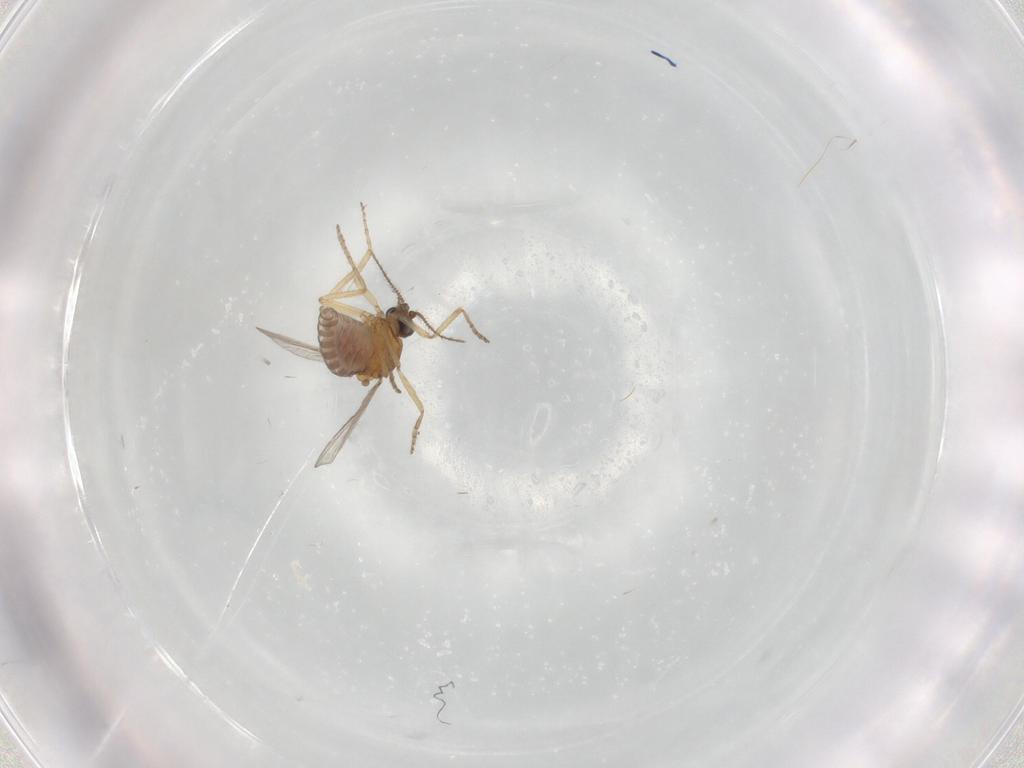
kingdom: Animalia
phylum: Arthropoda
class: Insecta
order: Diptera
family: Ceratopogonidae
